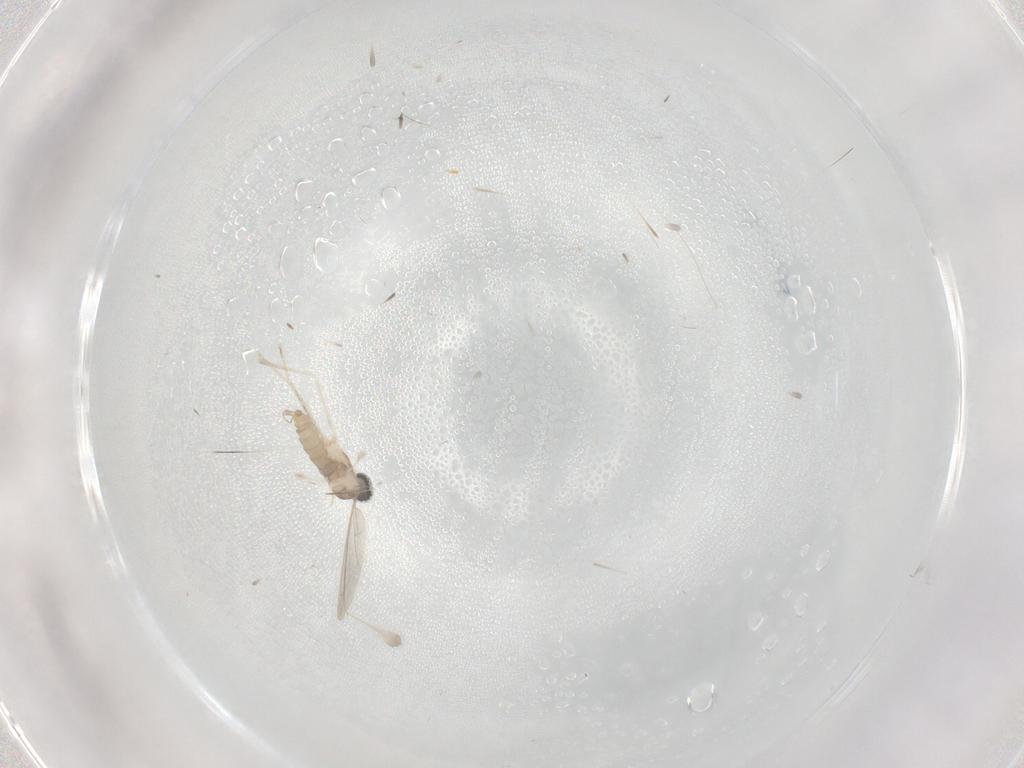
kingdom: Animalia
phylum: Arthropoda
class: Insecta
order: Diptera
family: Cecidomyiidae
